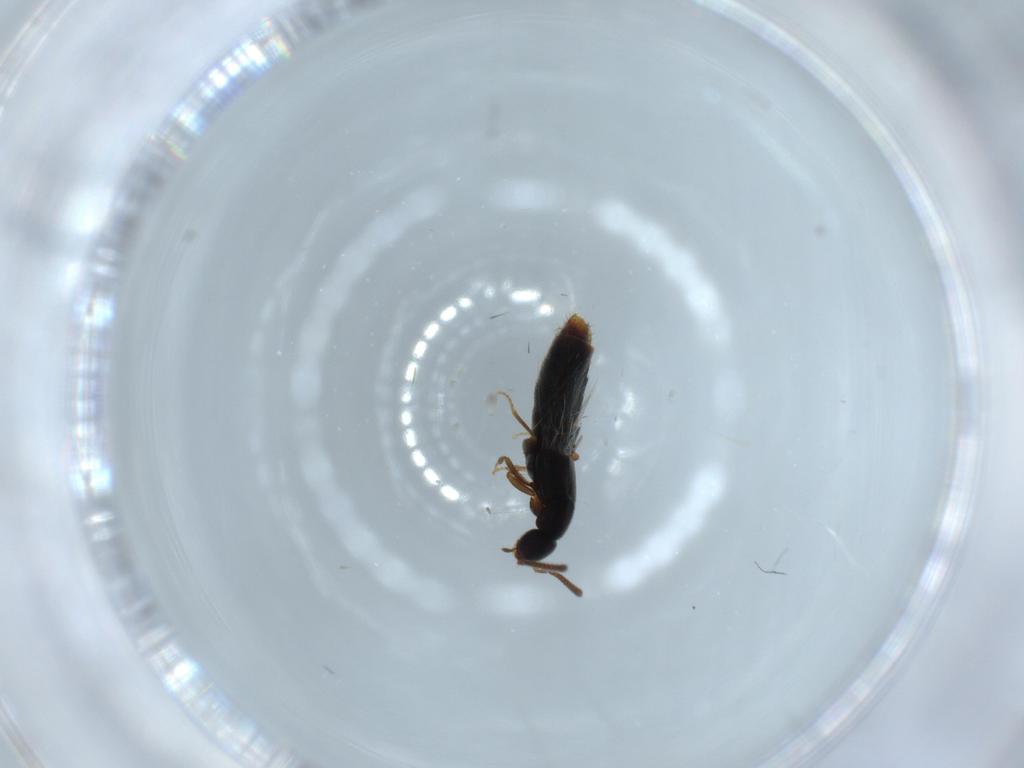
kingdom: Animalia
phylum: Arthropoda
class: Insecta
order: Coleoptera
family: Staphylinidae
